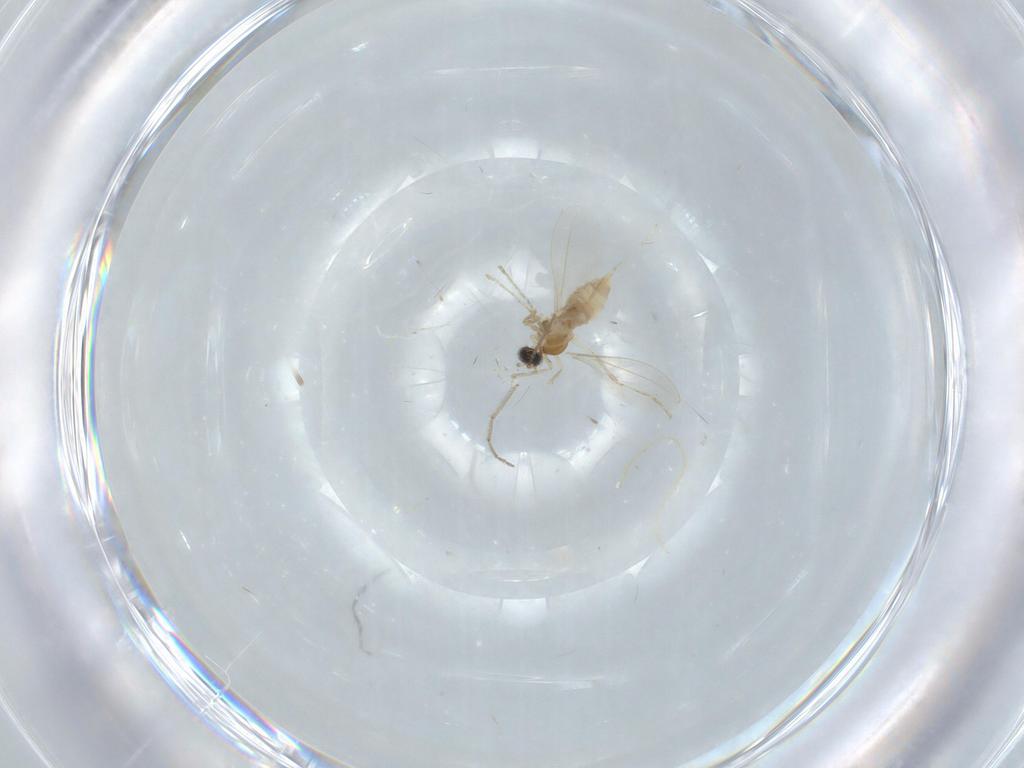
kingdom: Animalia
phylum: Arthropoda
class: Insecta
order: Diptera
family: Cecidomyiidae
